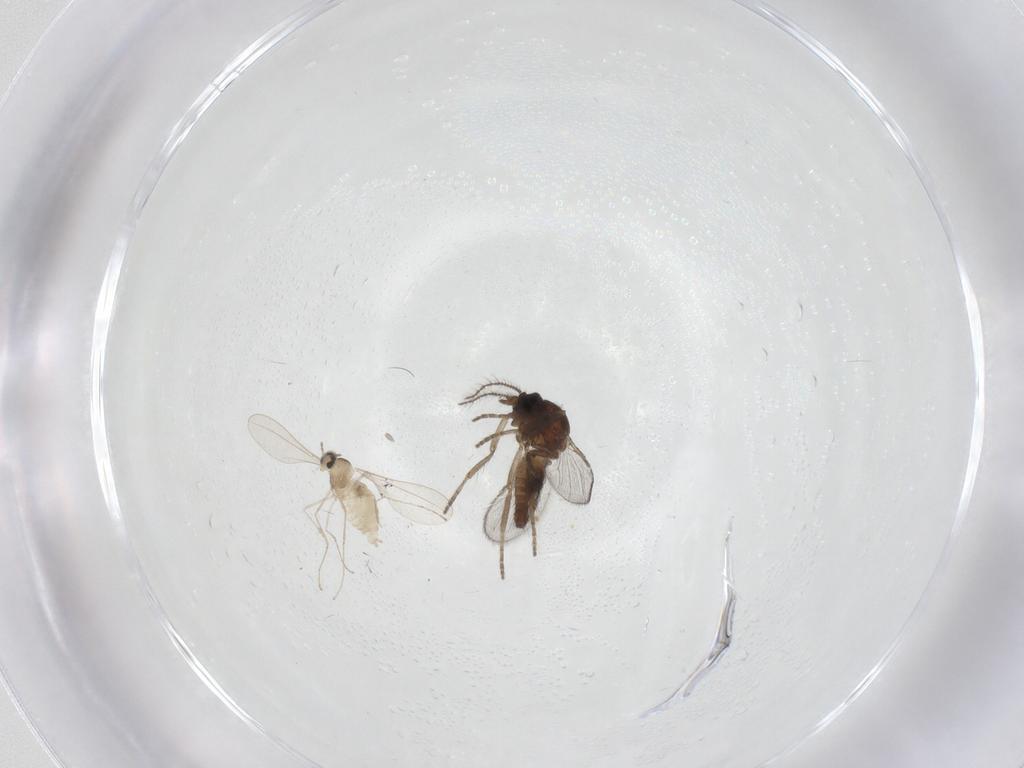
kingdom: Animalia
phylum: Arthropoda
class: Insecta
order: Diptera
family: Ceratopogonidae
